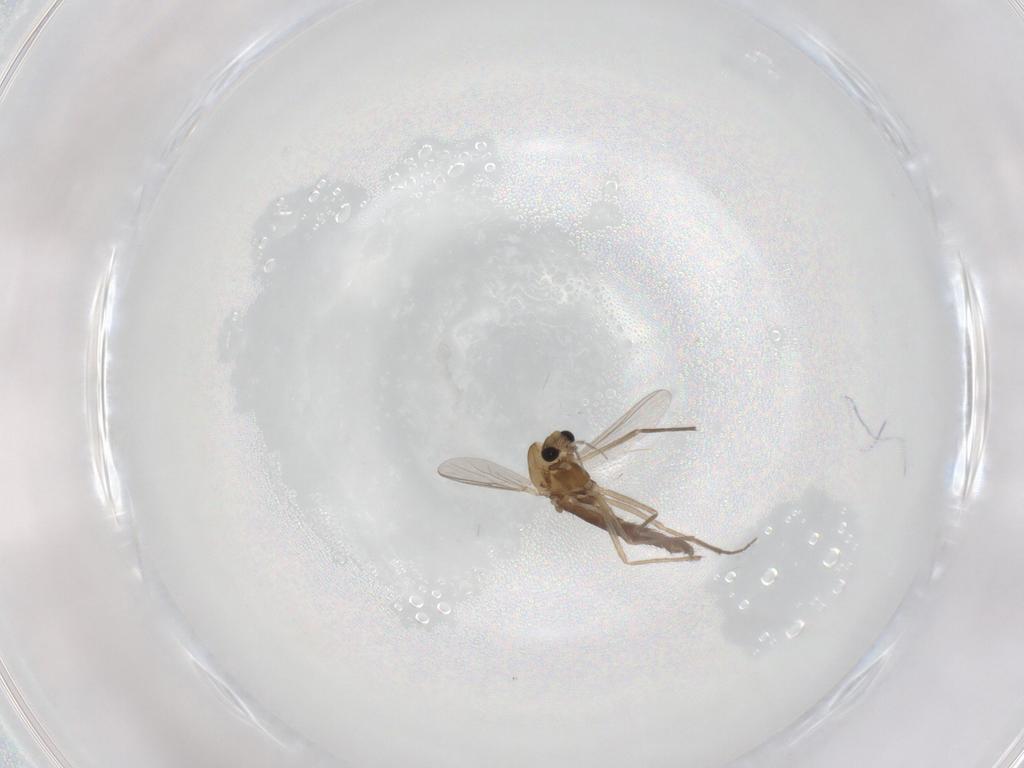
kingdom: Animalia
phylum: Arthropoda
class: Insecta
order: Diptera
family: Chironomidae
